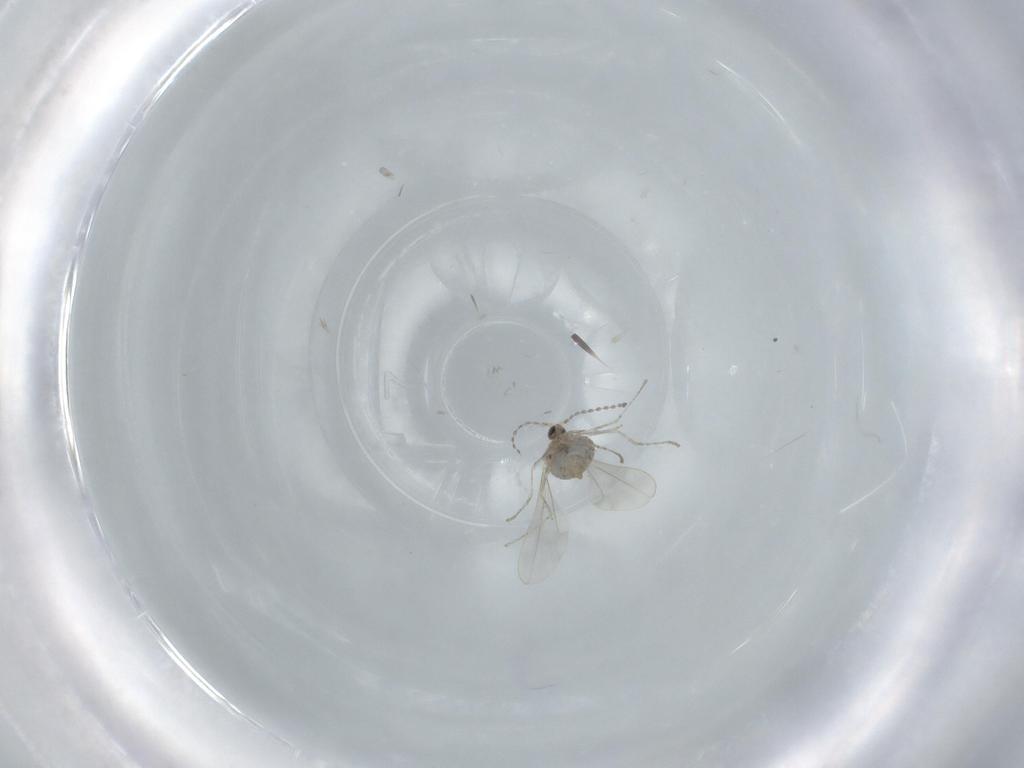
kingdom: Animalia
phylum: Arthropoda
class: Insecta
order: Diptera
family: Cecidomyiidae
